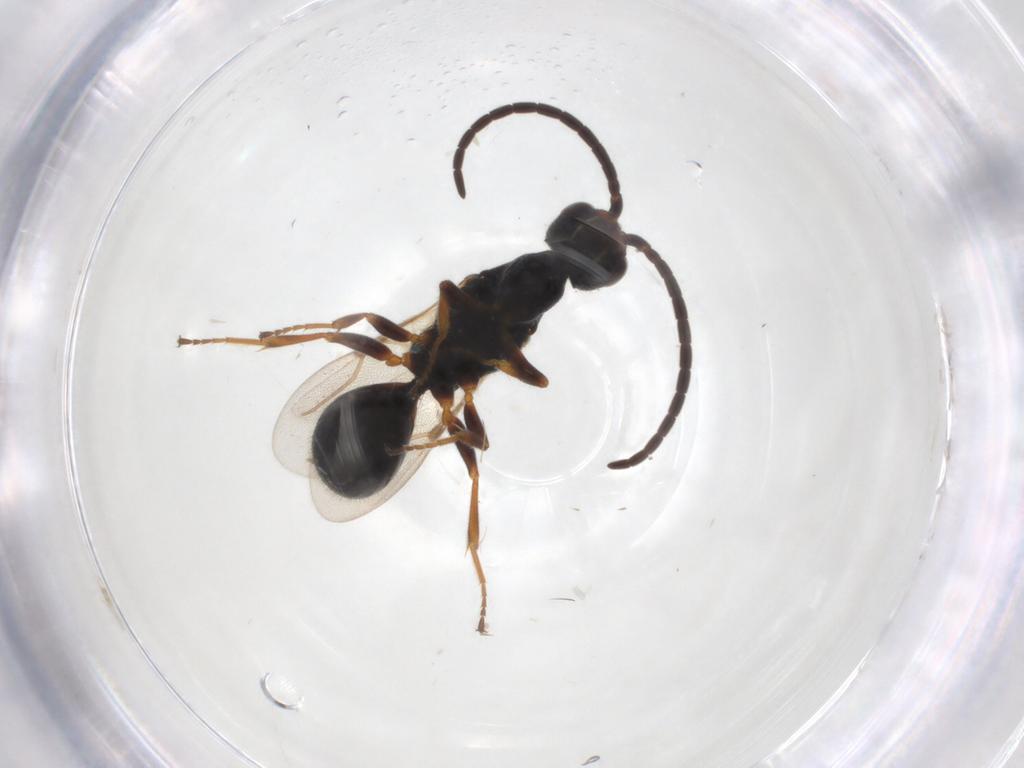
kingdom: Animalia
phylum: Arthropoda
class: Insecta
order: Hymenoptera
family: Bethylidae
